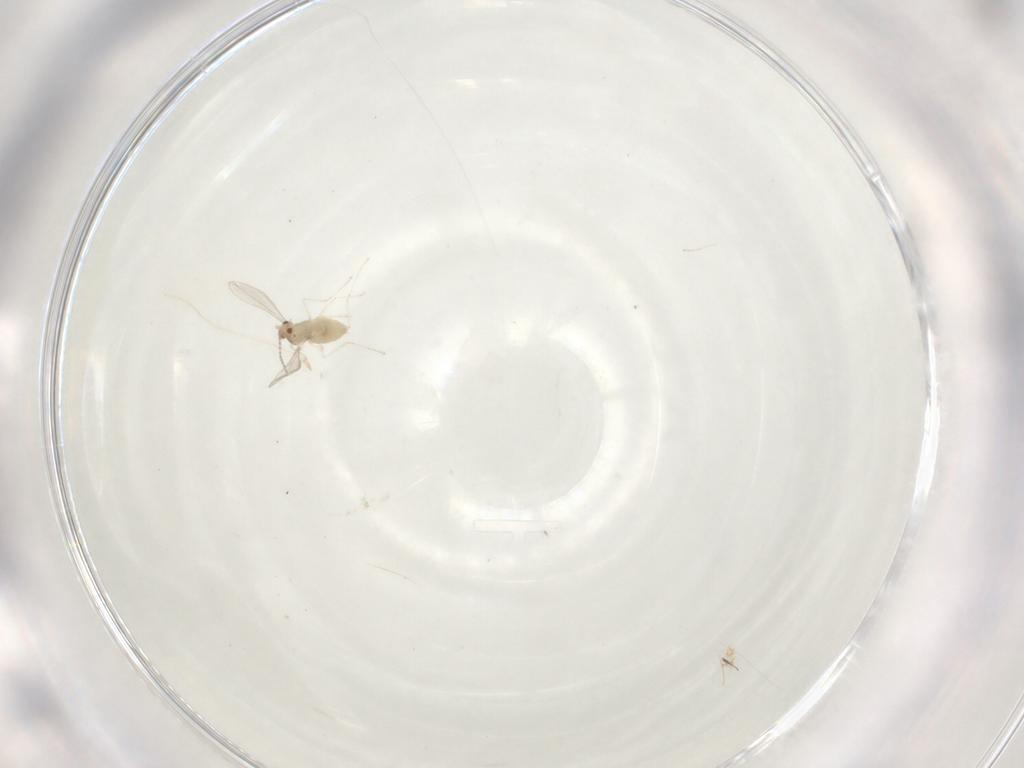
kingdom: Animalia
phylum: Arthropoda
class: Insecta
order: Diptera
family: Cecidomyiidae
